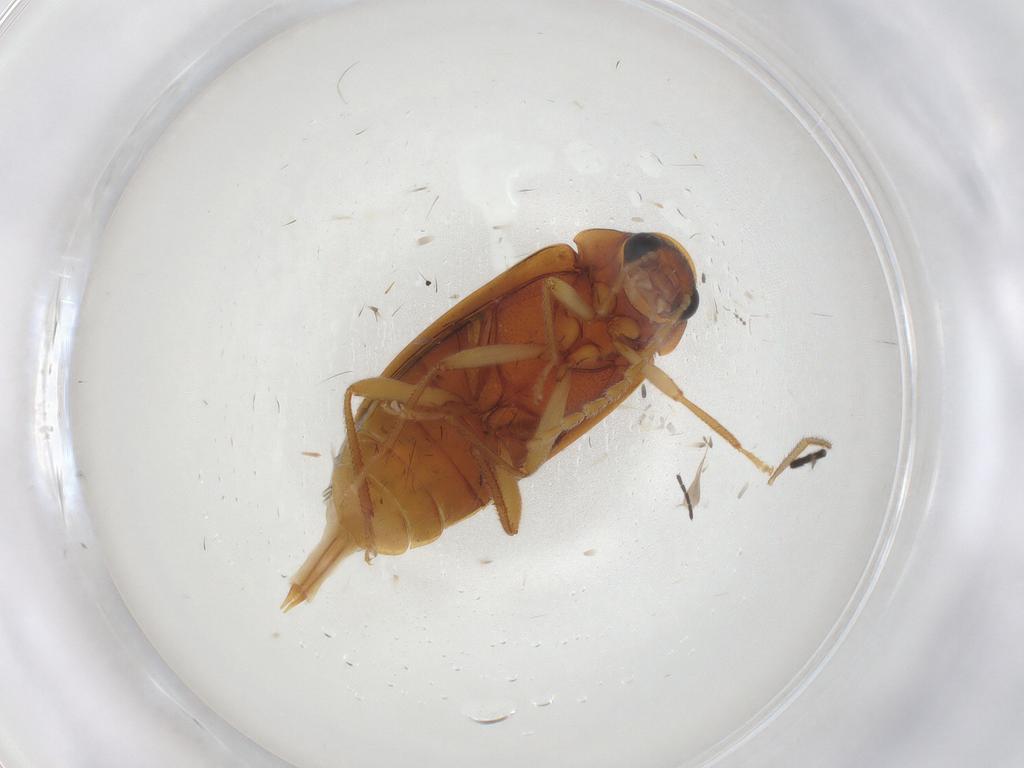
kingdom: Animalia
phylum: Arthropoda
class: Insecta
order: Coleoptera
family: Ptilodactylidae
